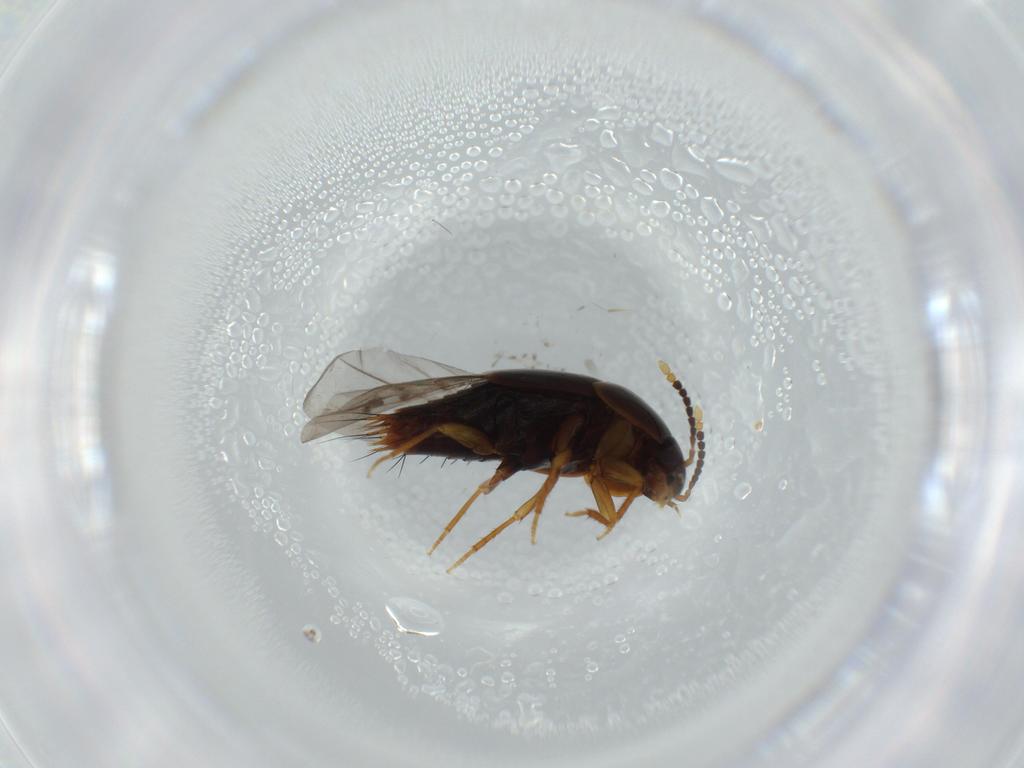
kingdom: Animalia
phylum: Arthropoda
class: Insecta
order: Coleoptera
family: Staphylinidae
